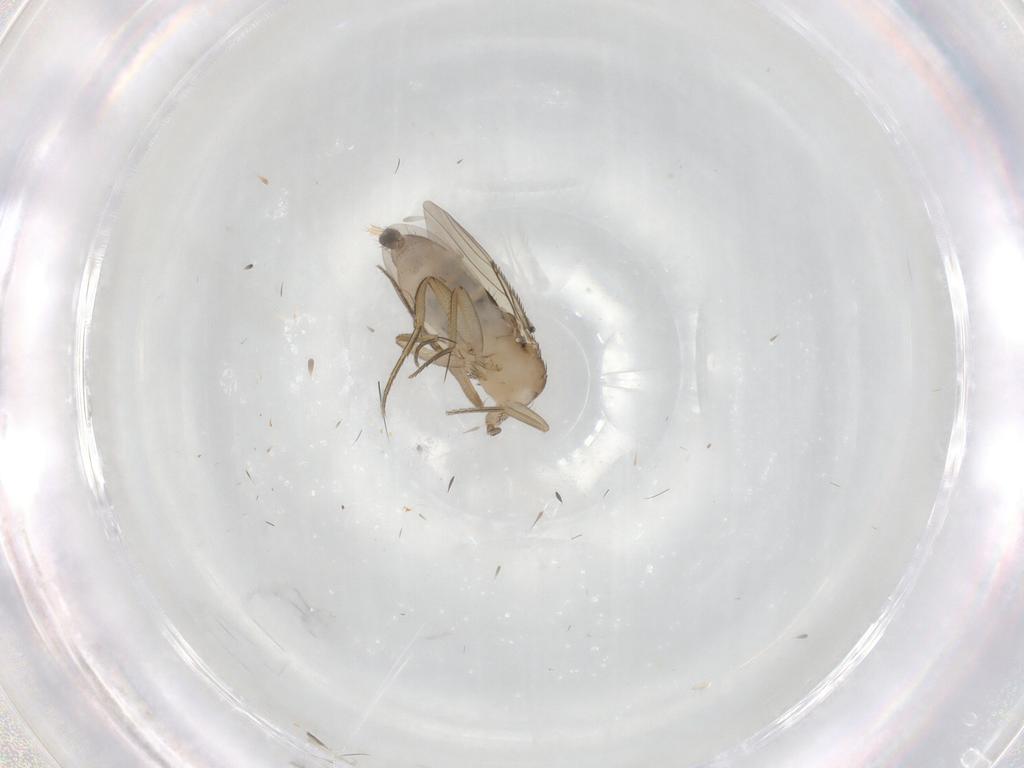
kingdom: Animalia
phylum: Arthropoda
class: Insecta
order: Diptera
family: Cecidomyiidae
